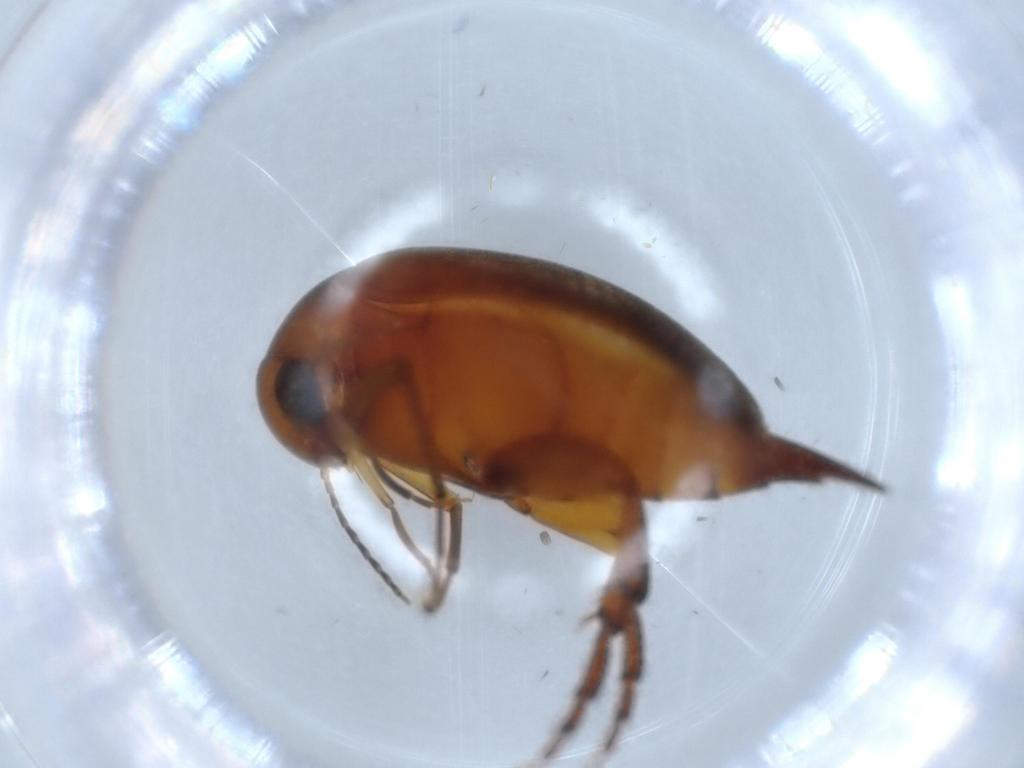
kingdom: Animalia
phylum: Arthropoda
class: Insecta
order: Coleoptera
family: Mordellidae
